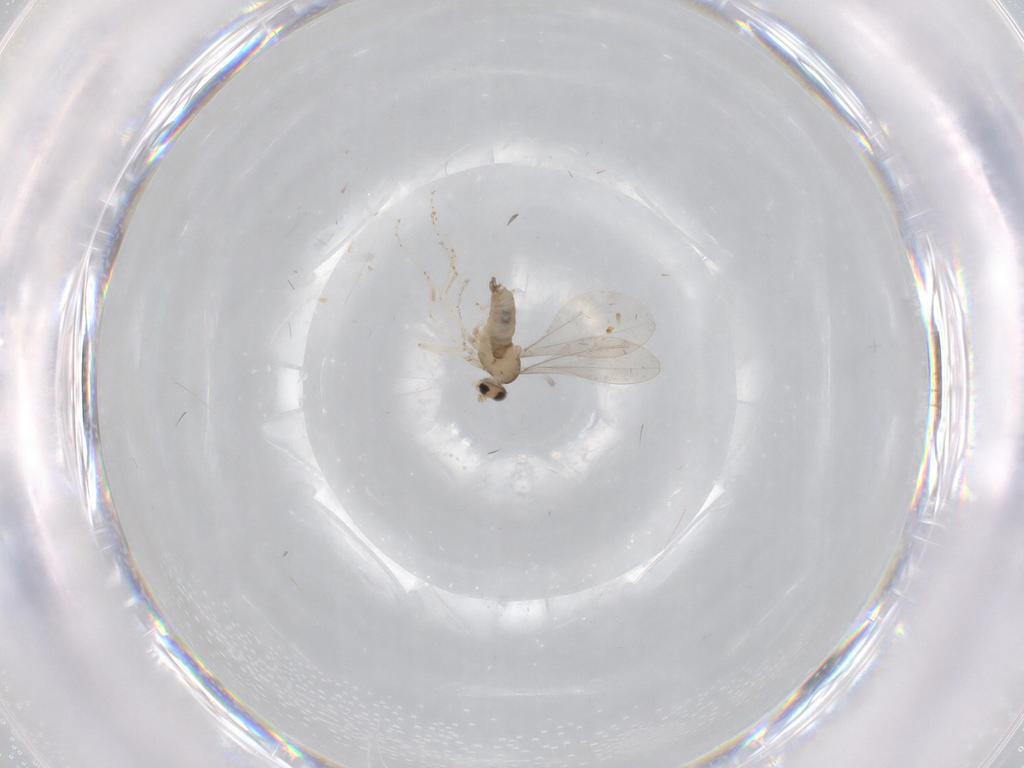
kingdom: Animalia
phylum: Arthropoda
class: Insecta
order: Diptera
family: Cecidomyiidae
